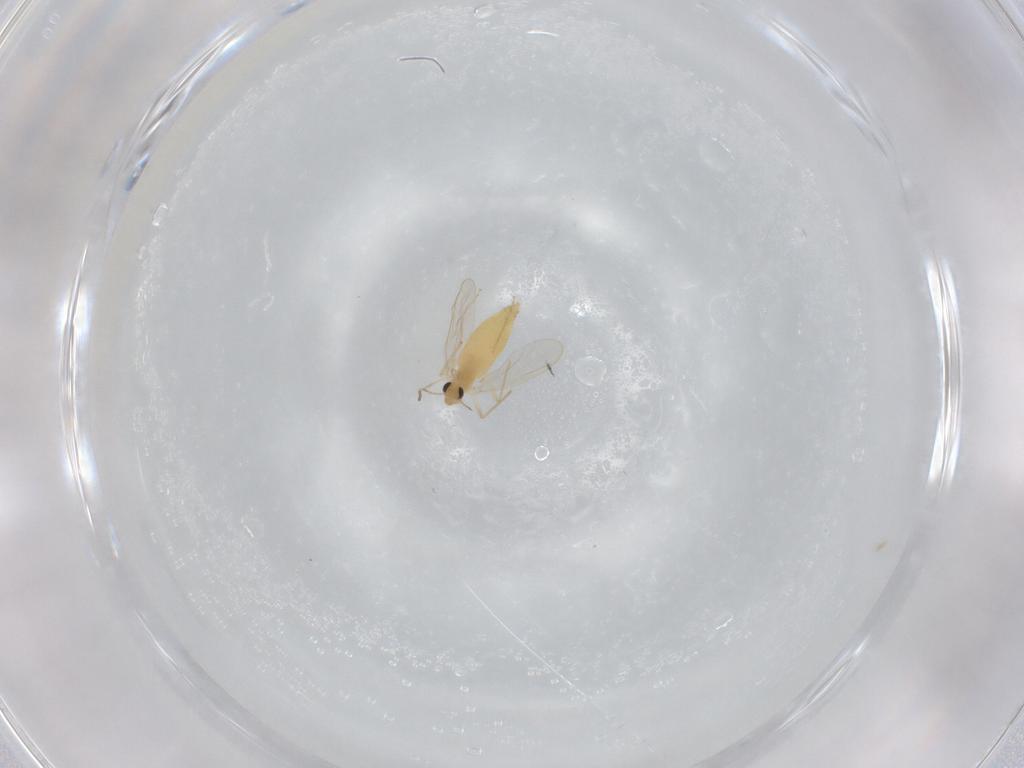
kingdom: Animalia
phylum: Arthropoda
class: Insecta
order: Diptera
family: Chironomidae
